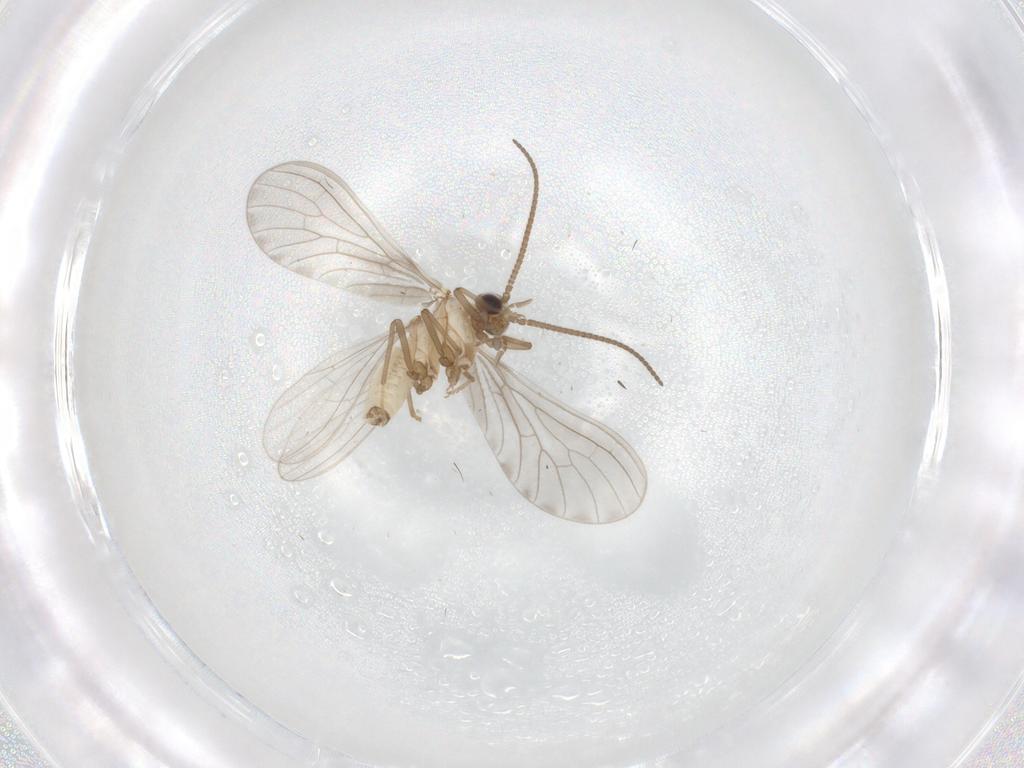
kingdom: Animalia
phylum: Arthropoda
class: Insecta
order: Neuroptera
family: Coniopterygidae
